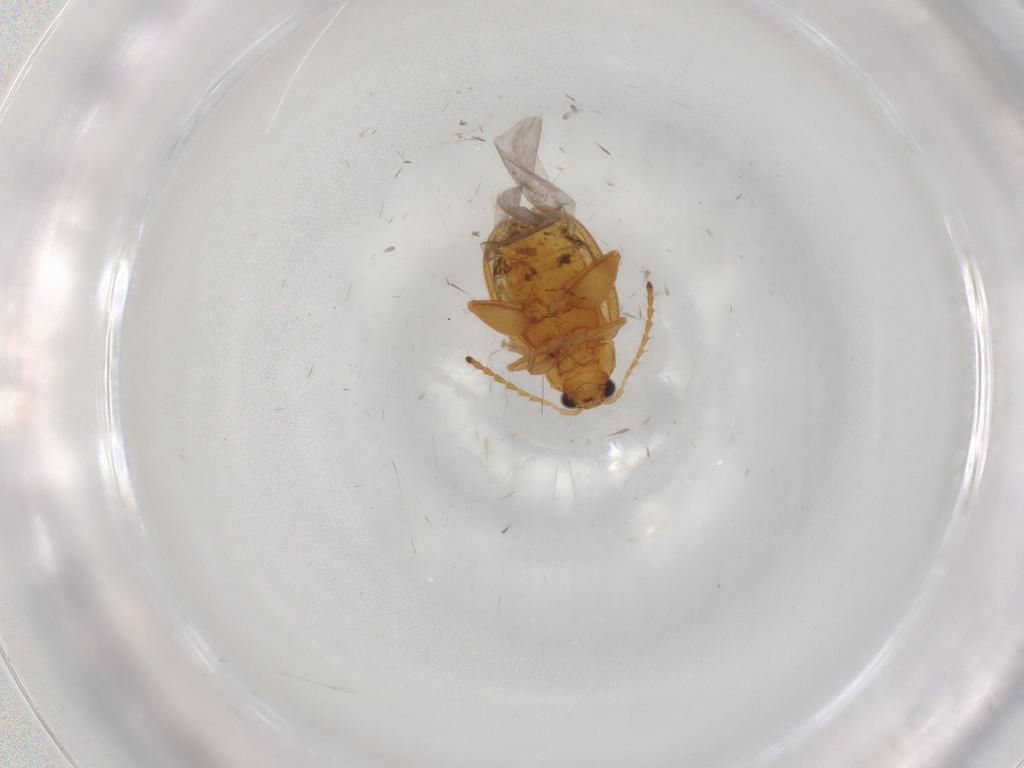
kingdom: Animalia
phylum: Arthropoda
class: Insecta
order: Coleoptera
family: Chrysomelidae
